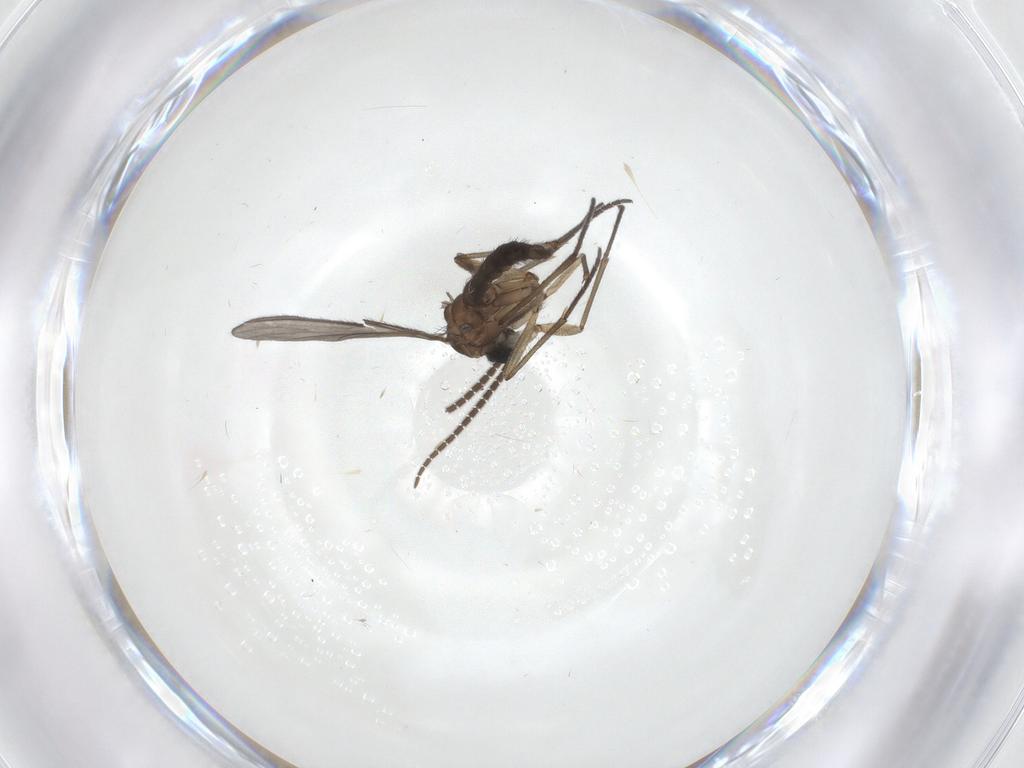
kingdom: Animalia
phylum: Arthropoda
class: Insecta
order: Diptera
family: Sciaridae
